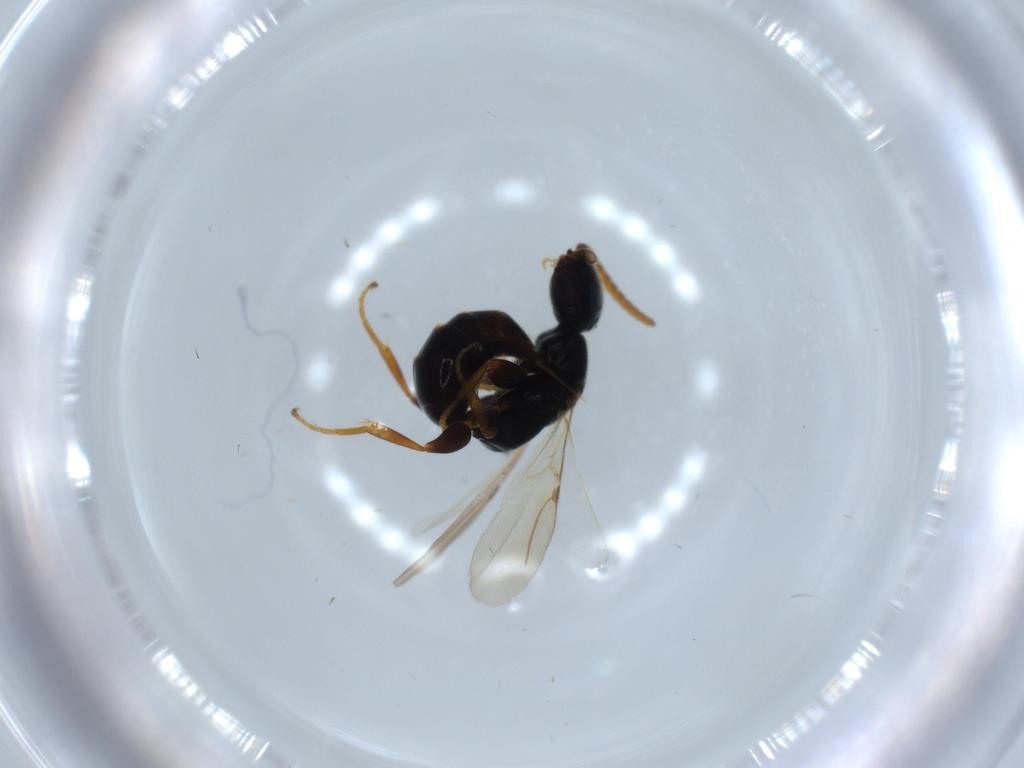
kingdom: Animalia
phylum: Arthropoda
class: Insecta
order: Hymenoptera
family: Bethylidae
